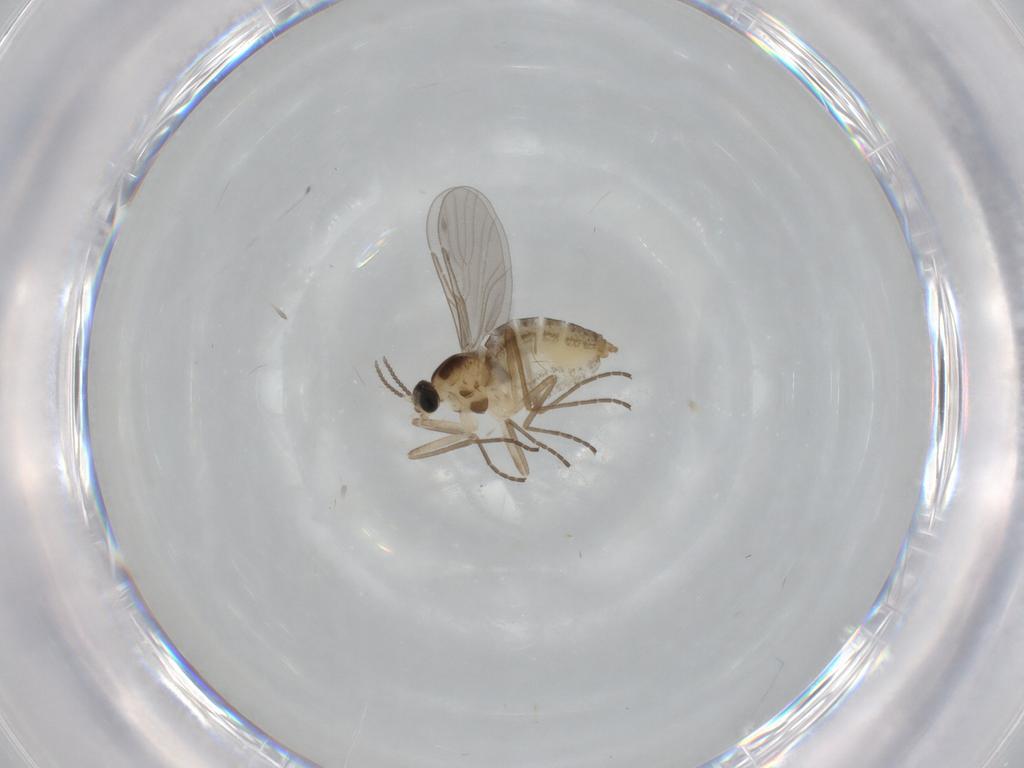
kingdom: Animalia
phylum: Arthropoda
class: Insecta
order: Diptera
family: Cecidomyiidae
